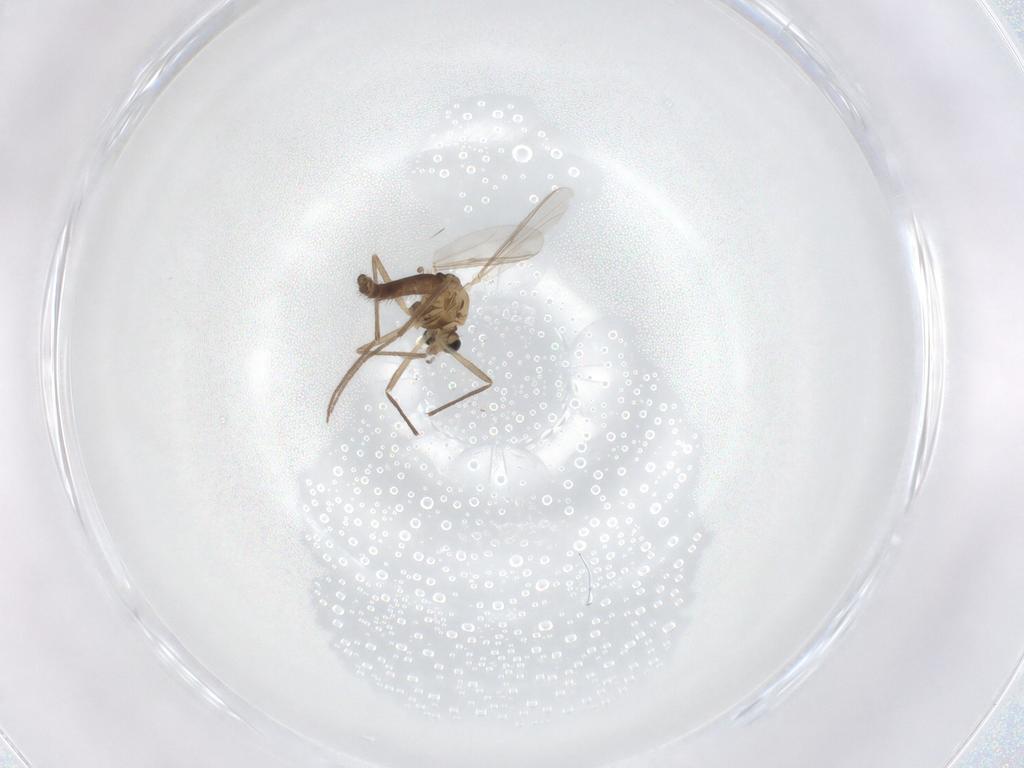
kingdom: Animalia
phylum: Arthropoda
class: Insecta
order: Diptera
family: Chironomidae
